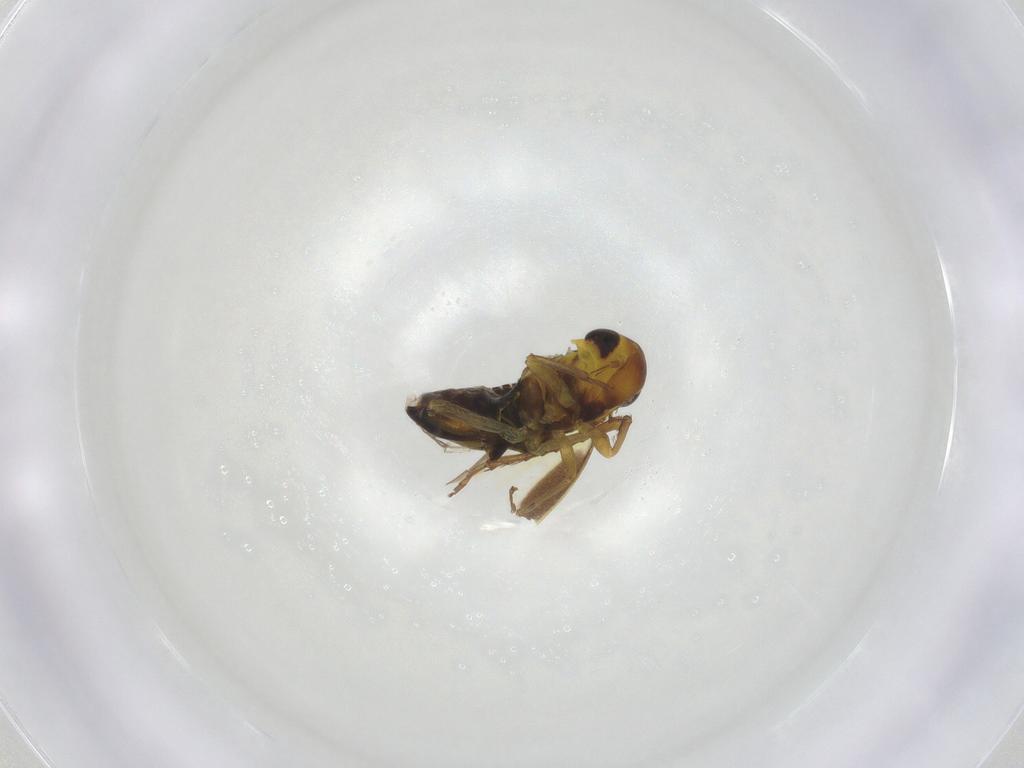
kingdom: Animalia
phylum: Arthropoda
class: Insecta
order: Hemiptera
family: Cicadellidae
